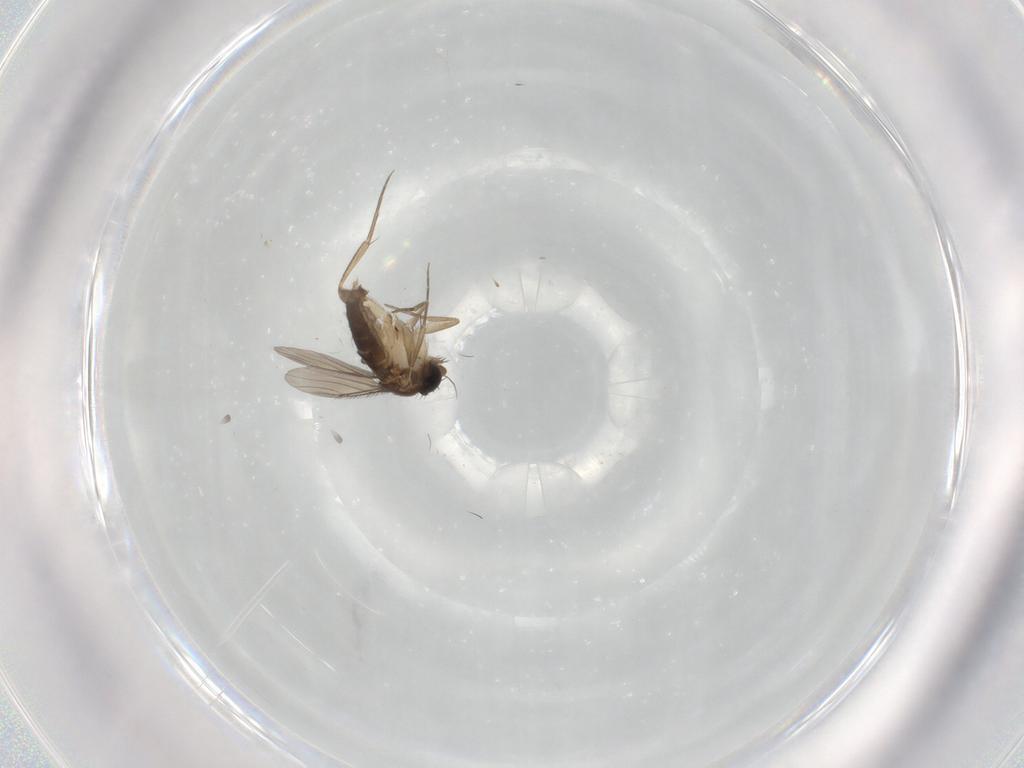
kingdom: Animalia
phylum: Arthropoda
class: Insecta
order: Diptera
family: Phoridae
